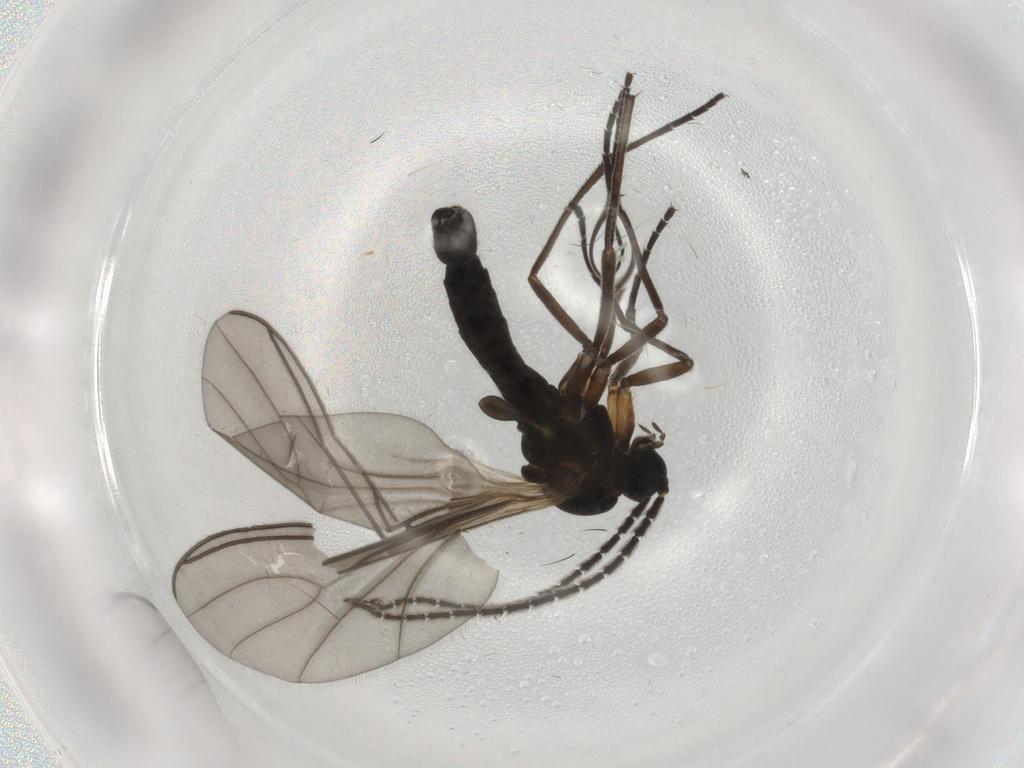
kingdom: Animalia
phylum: Arthropoda
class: Insecta
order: Diptera
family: Sciaridae
